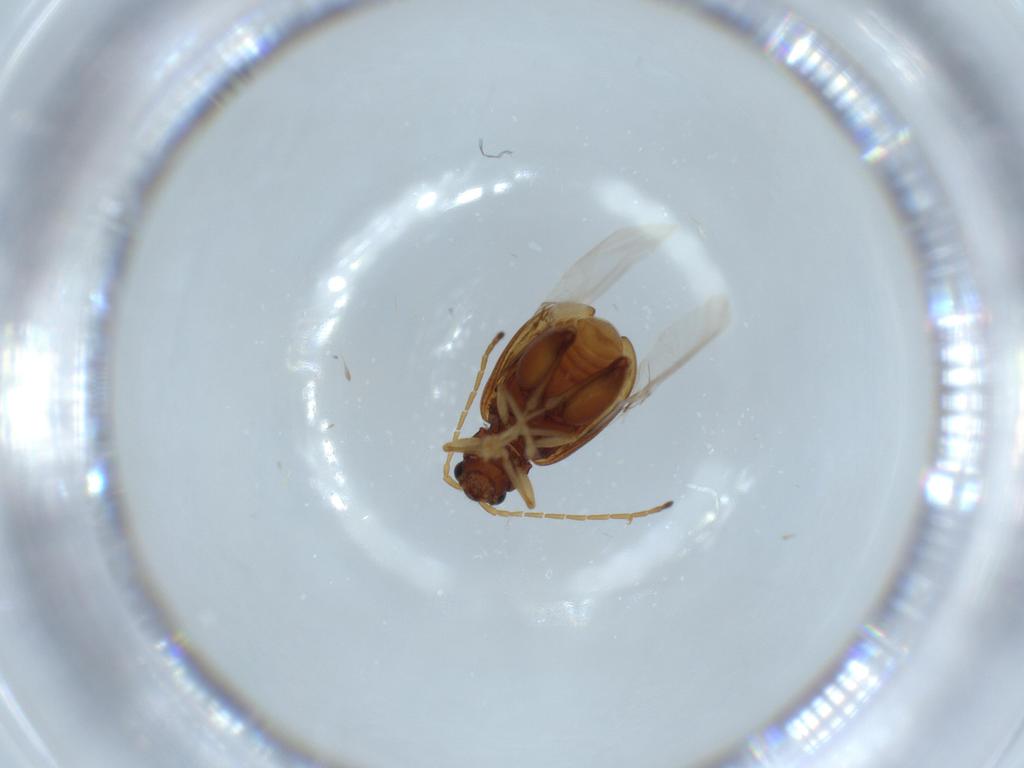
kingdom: Animalia
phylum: Arthropoda
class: Insecta
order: Coleoptera
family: Chrysomelidae
